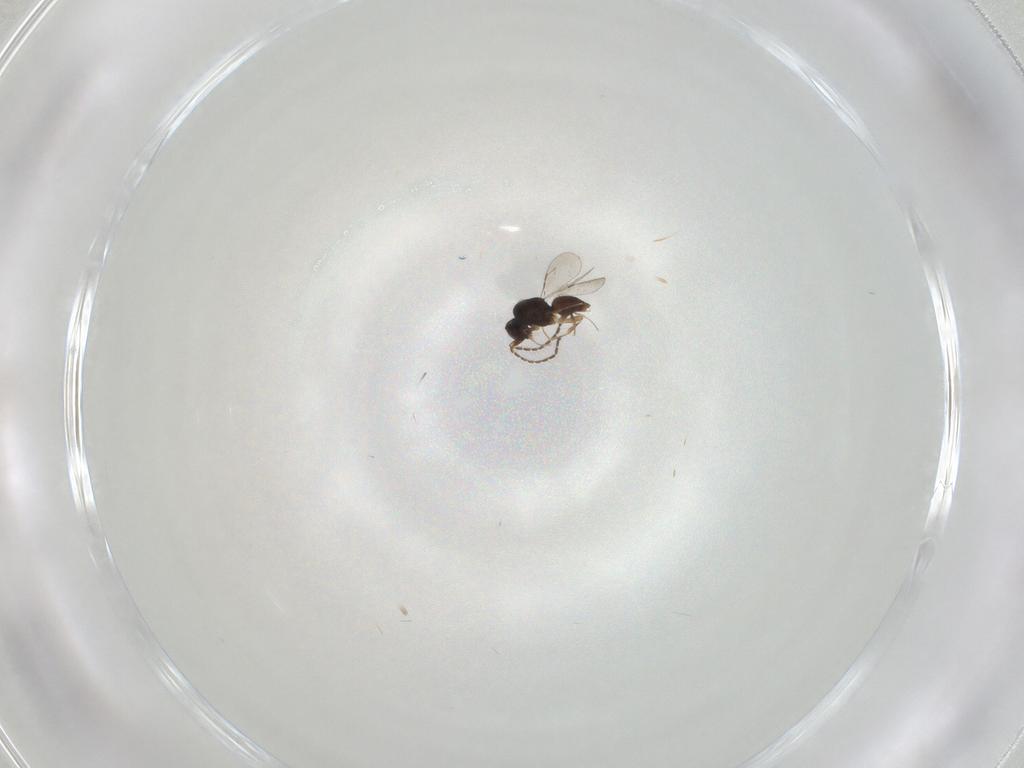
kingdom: Animalia
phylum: Arthropoda
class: Insecta
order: Hymenoptera
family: Ceraphronidae
